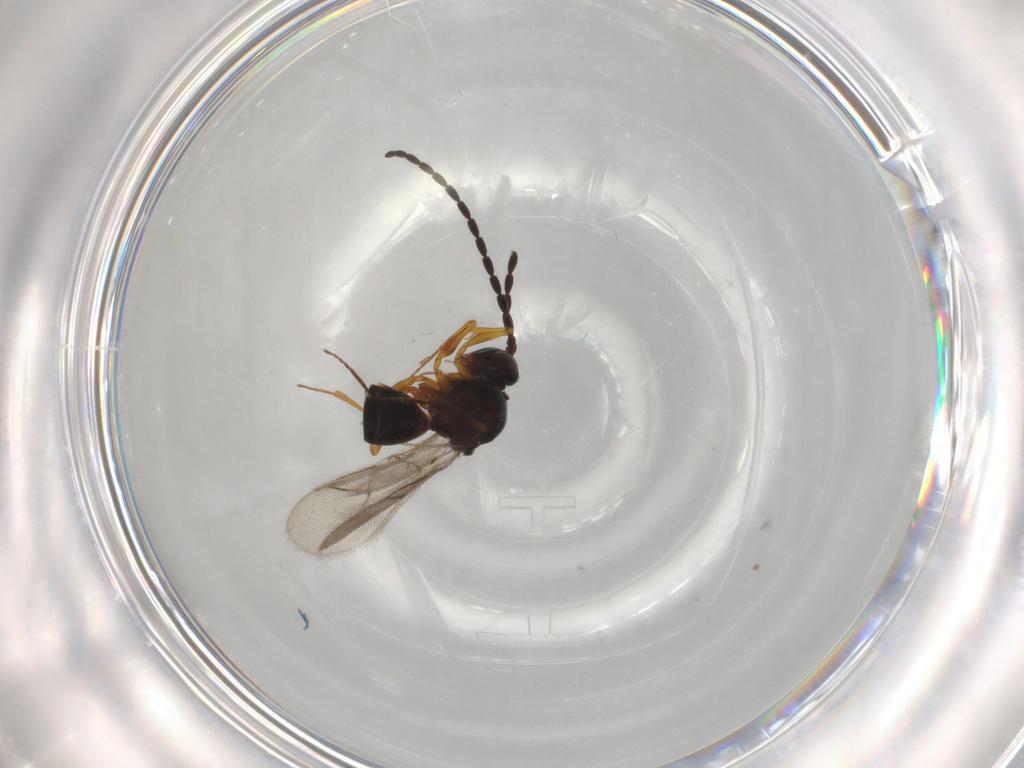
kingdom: Animalia
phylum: Arthropoda
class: Insecta
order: Hymenoptera
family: Figitidae
